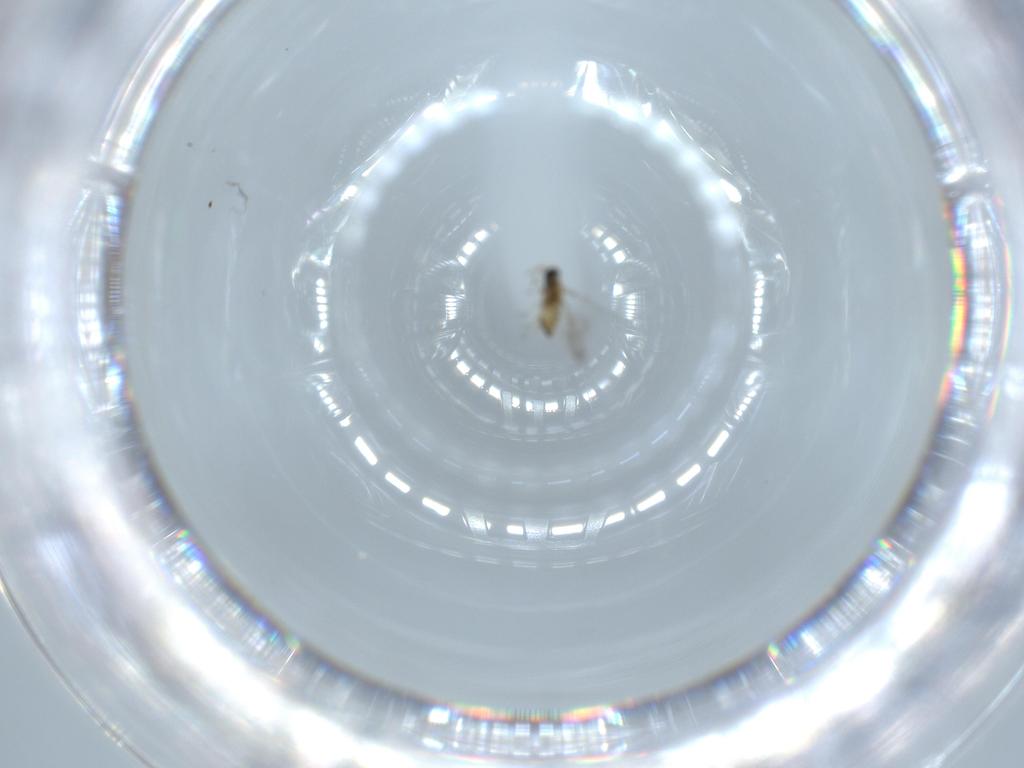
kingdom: Animalia
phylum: Arthropoda
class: Insecta
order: Hymenoptera
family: Trichogrammatidae
